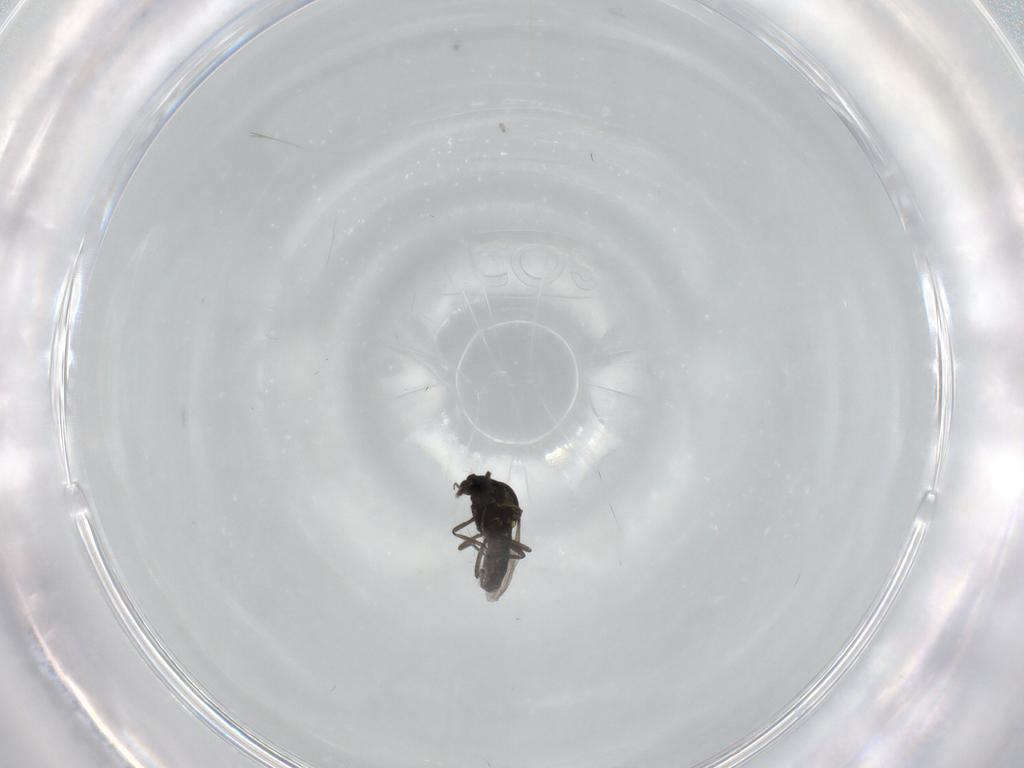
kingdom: Animalia
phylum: Arthropoda
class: Insecta
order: Diptera
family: Ceratopogonidae
